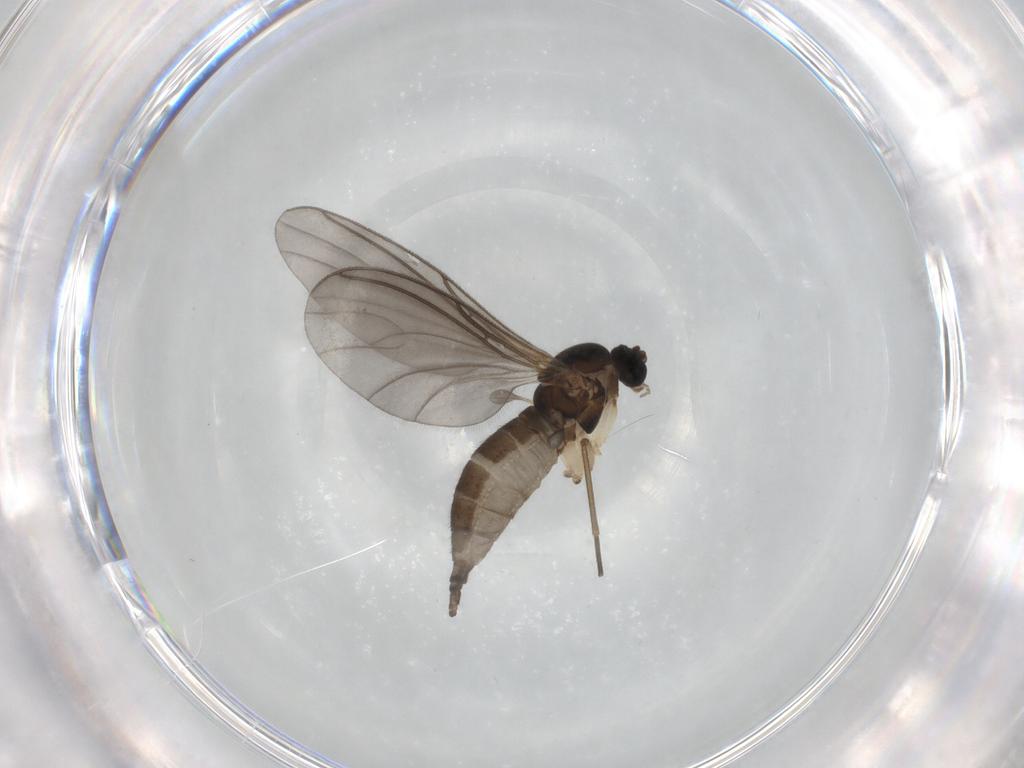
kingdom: Animalia
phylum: Arthropoda
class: Insecta
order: Diptera
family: Sciaridae
